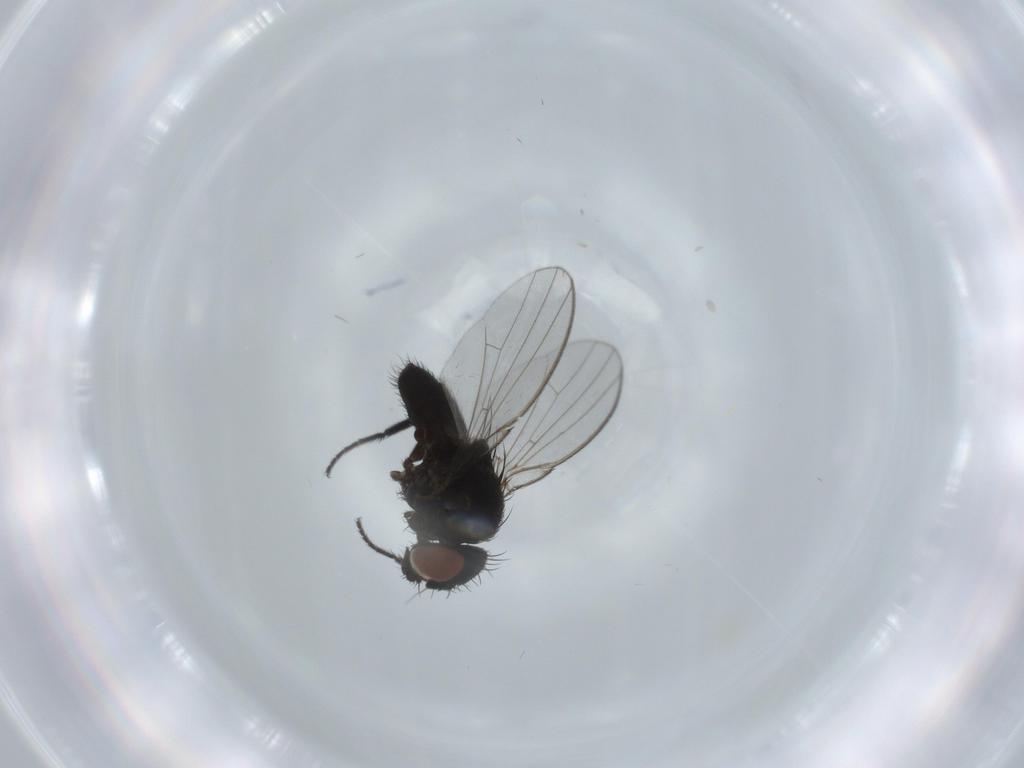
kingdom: Animalia
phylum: Arthropoda
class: Insecta
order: Diptera
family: Milichiidae
